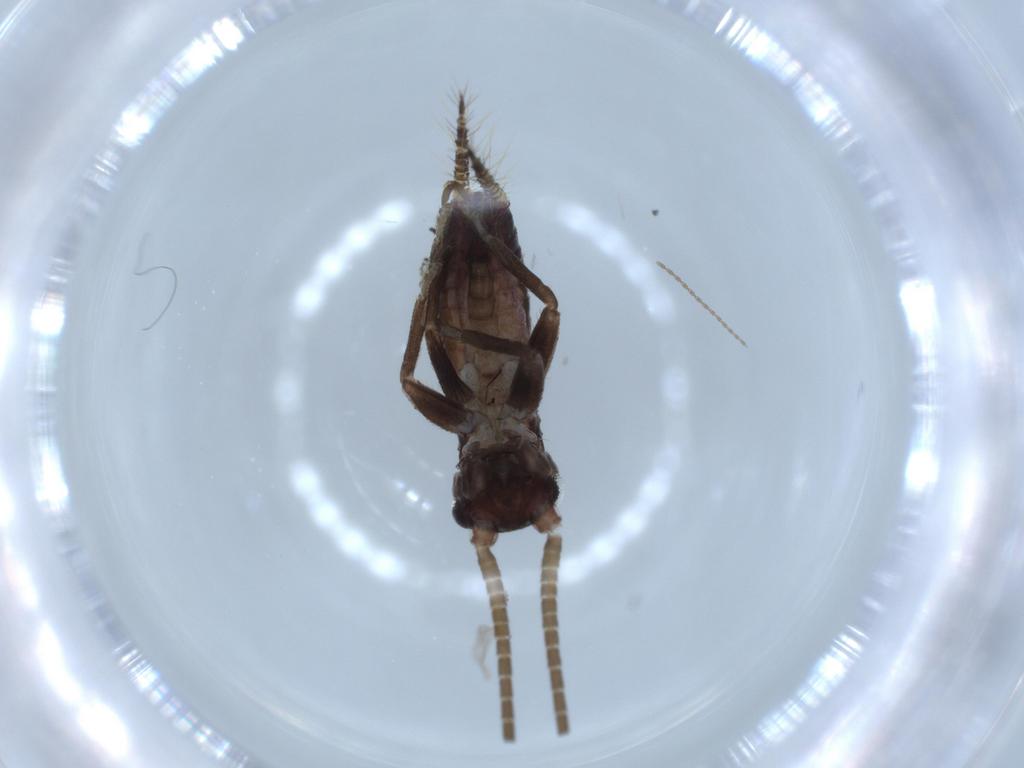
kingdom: Animalia
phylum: Arthropoda
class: Insecta
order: Orthoptera
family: Gryllidae
